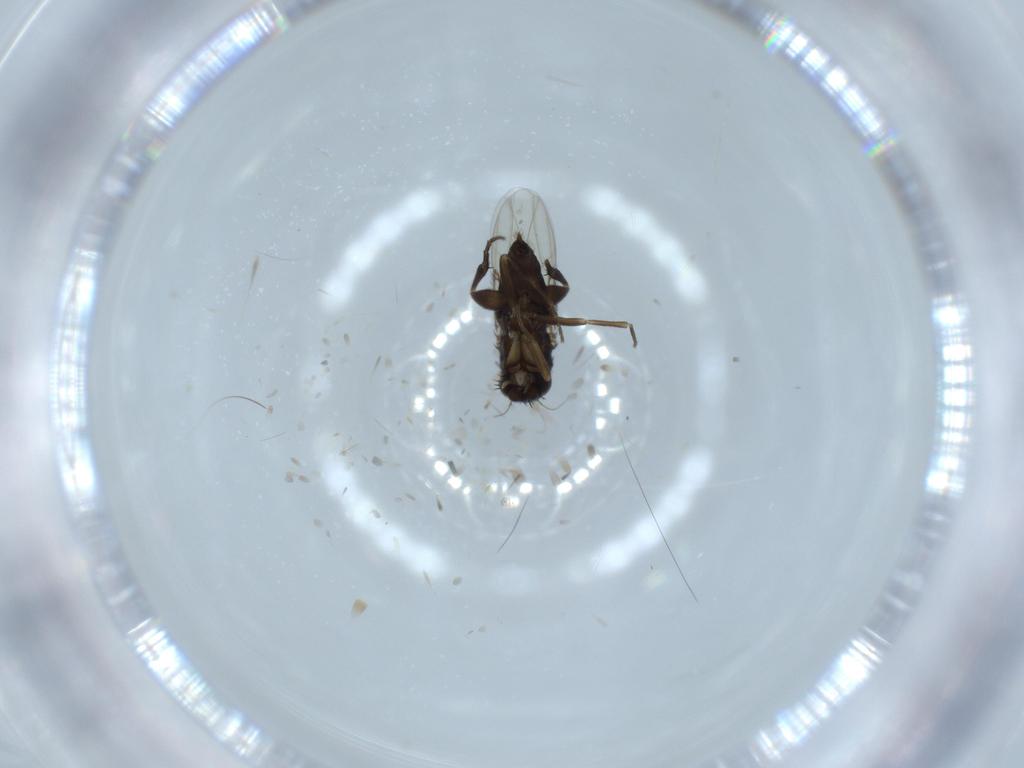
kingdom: Animalia
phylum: Arthropoda
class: Insecta
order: Diptera
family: Phoridae
